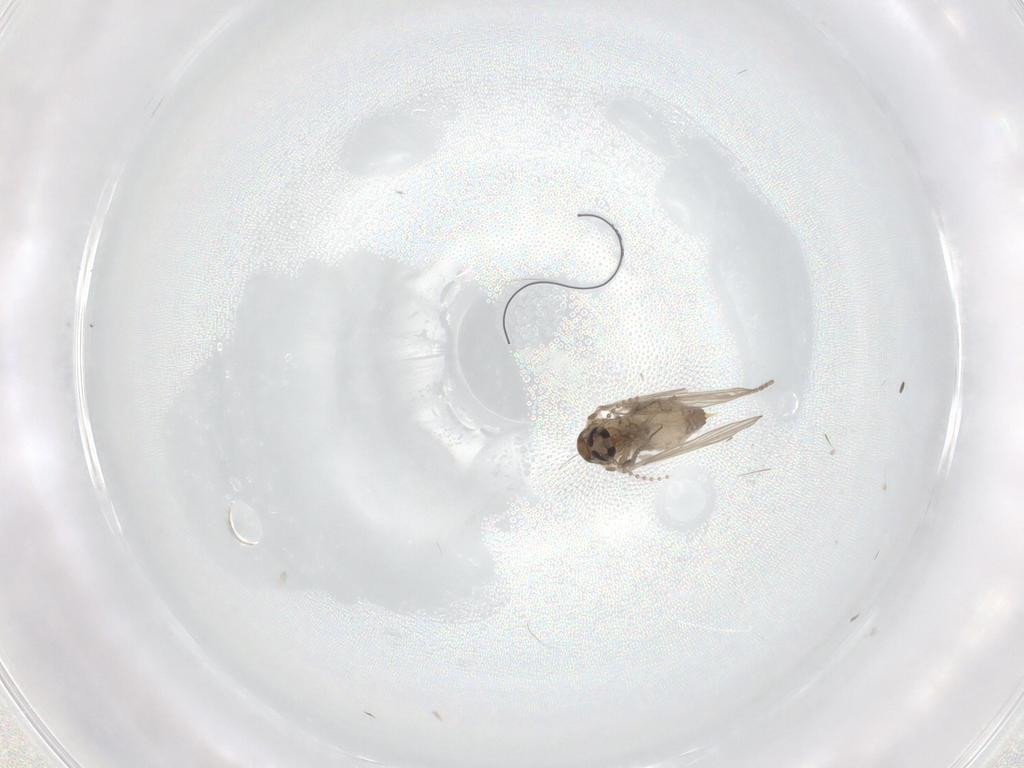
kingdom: Animalia
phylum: Arthropoda
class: Insecta
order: Diptera
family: Psychodidae
